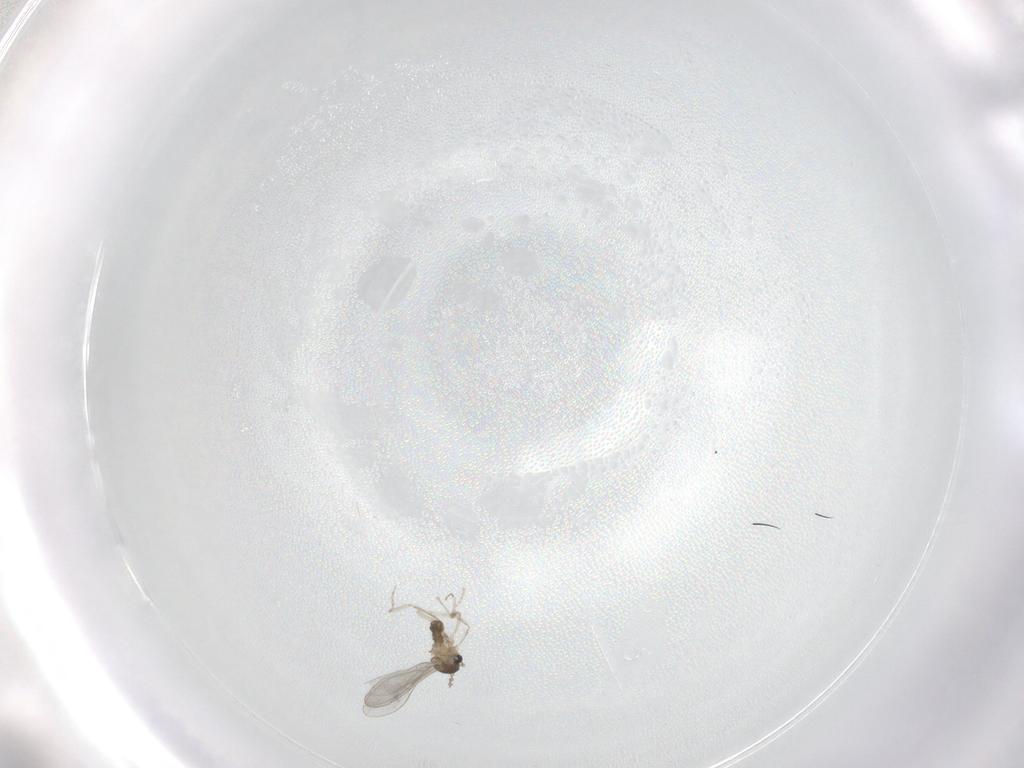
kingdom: Animalia
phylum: Arthropoda
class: Insecta
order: Diptera
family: Cecidomyiidae
